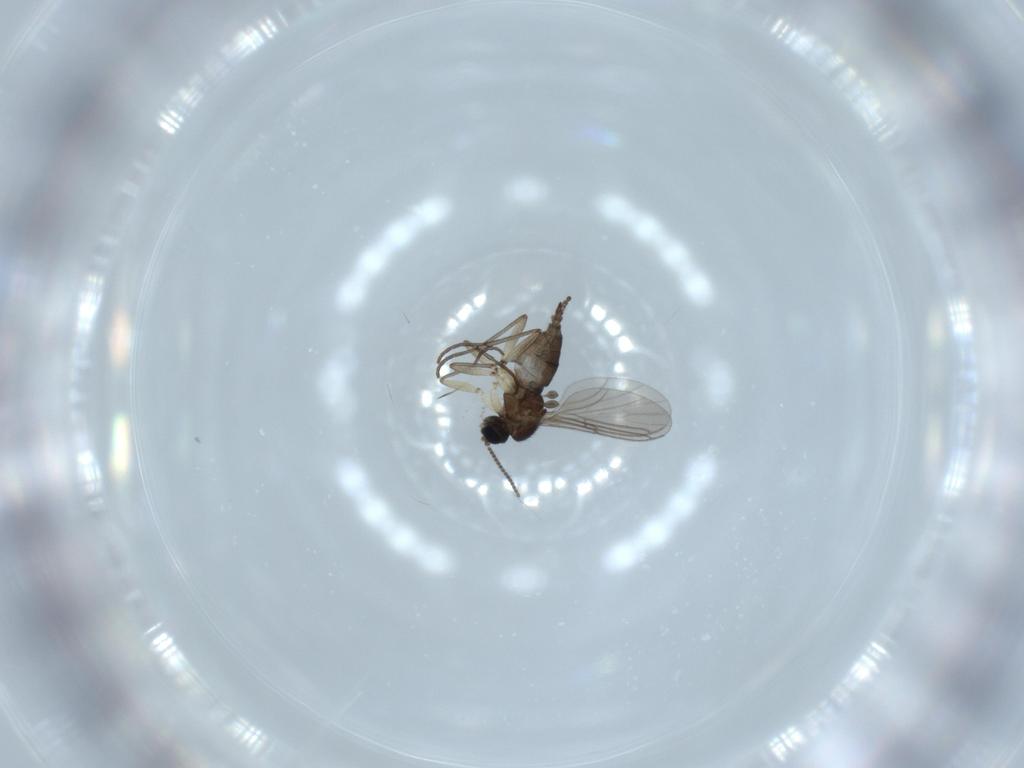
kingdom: Animalia
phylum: Arthropoda
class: Insecta
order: Diptera
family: Sciaridae
